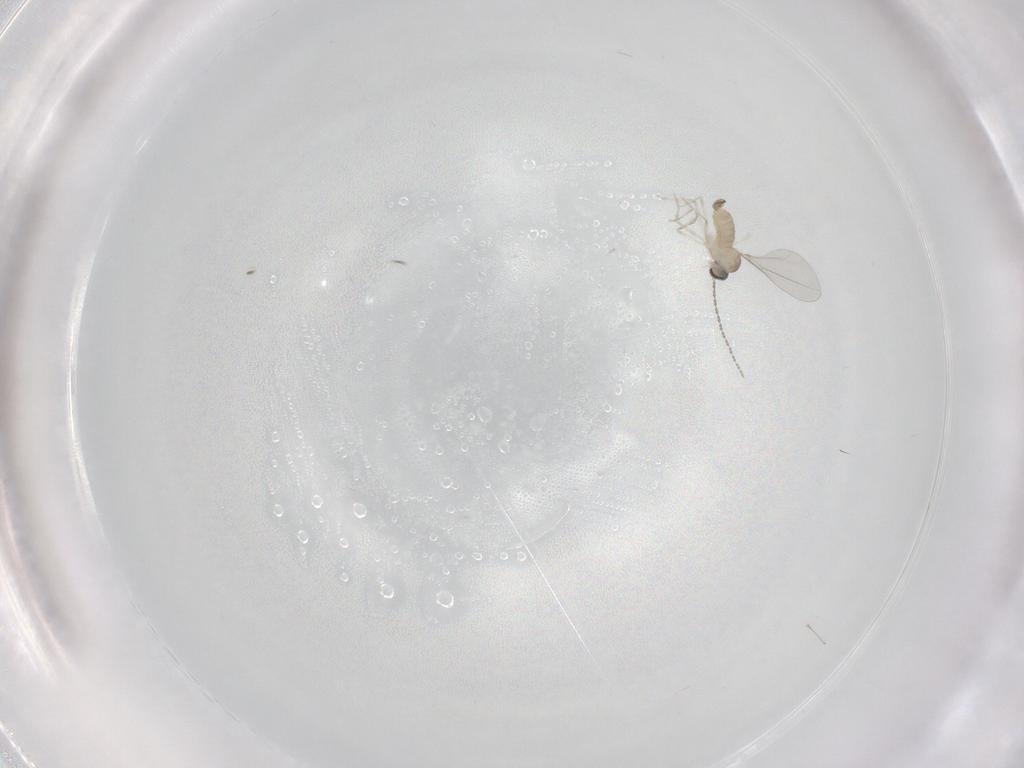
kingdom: Animalia
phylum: Arthropoda
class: Insecta
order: Diptera
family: Cecidomyiidae
